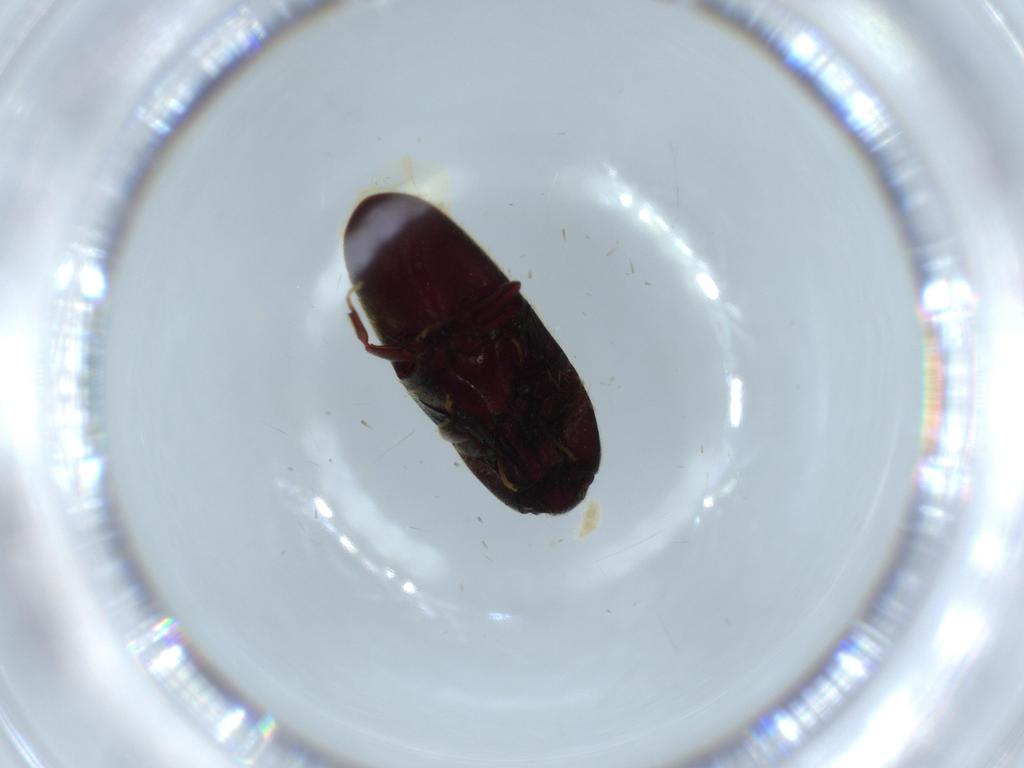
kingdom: Animalia
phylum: Arthropoda
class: Insecta
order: Coleoptera
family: Throscidae
